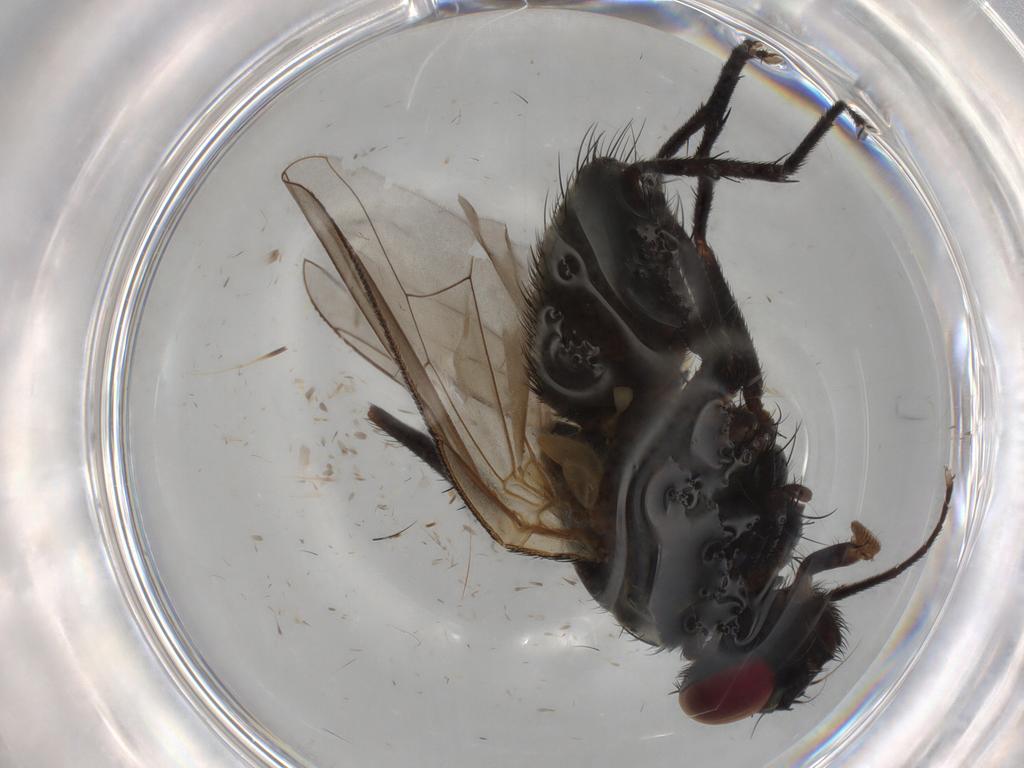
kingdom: Animalia
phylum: Arthropoda
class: Insecta
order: Diptera
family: Muscidae
